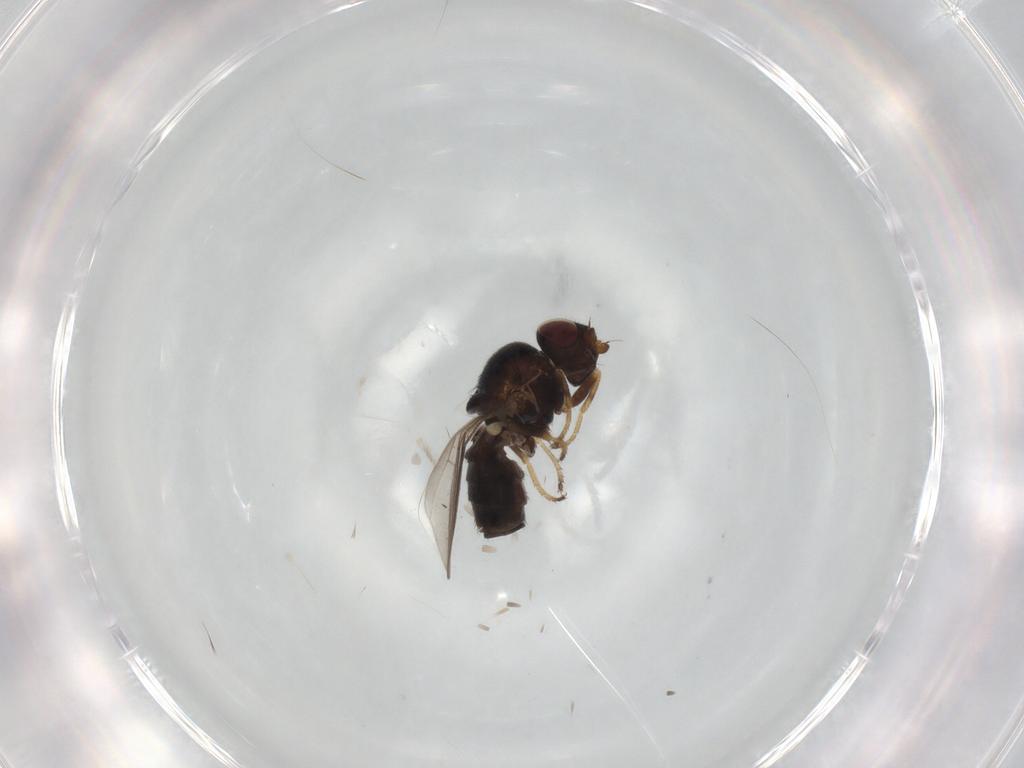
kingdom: Animalia
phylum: Arthropoda
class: Insecta
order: Diptera
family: Chloropidae
